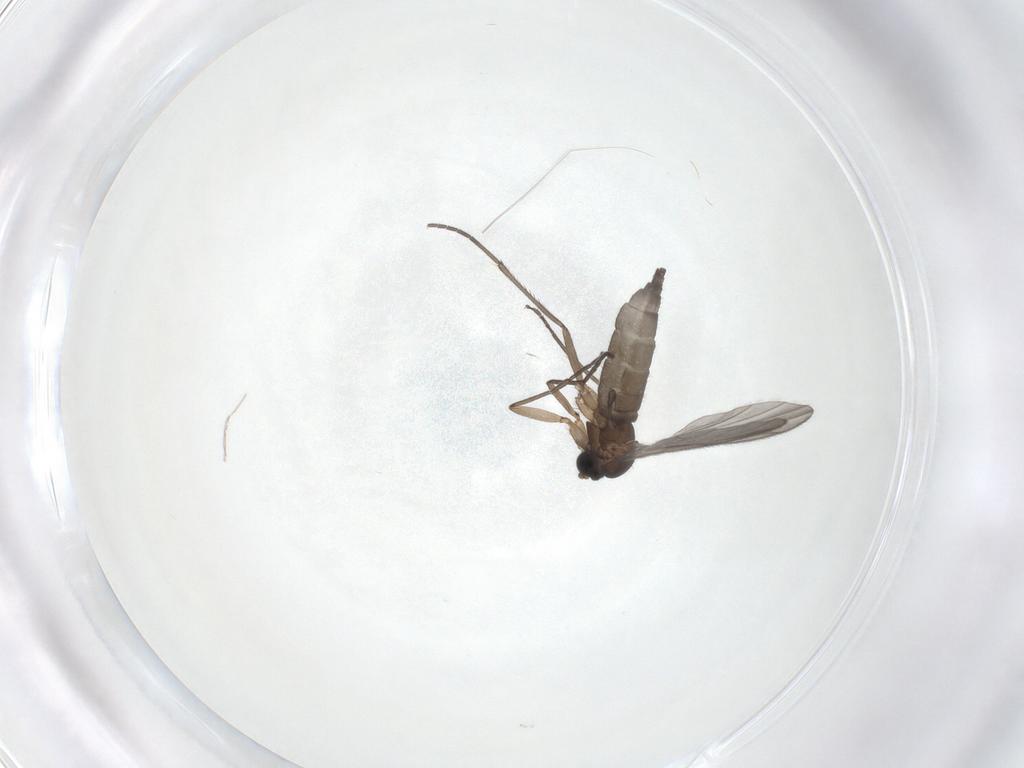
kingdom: Animalia
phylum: Arthropoda
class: Insecta
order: Diptera
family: Sciaridae
